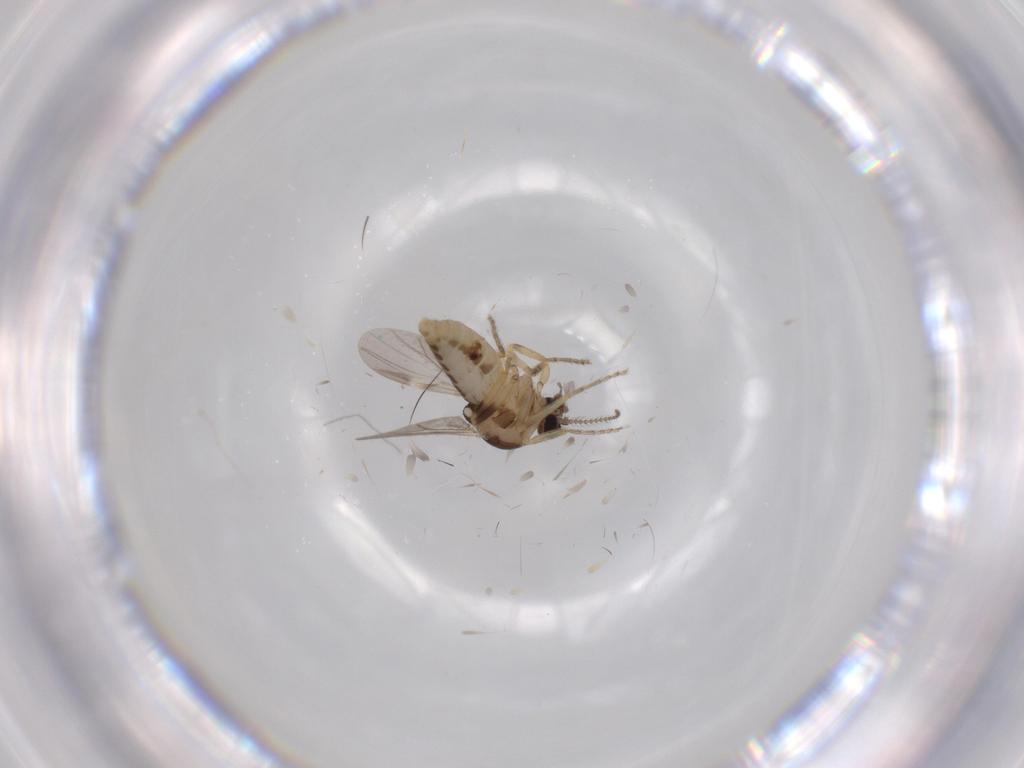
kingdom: Animalia
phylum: Arthropoda
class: Insecta
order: Diptera
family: Ceratopogonidae
